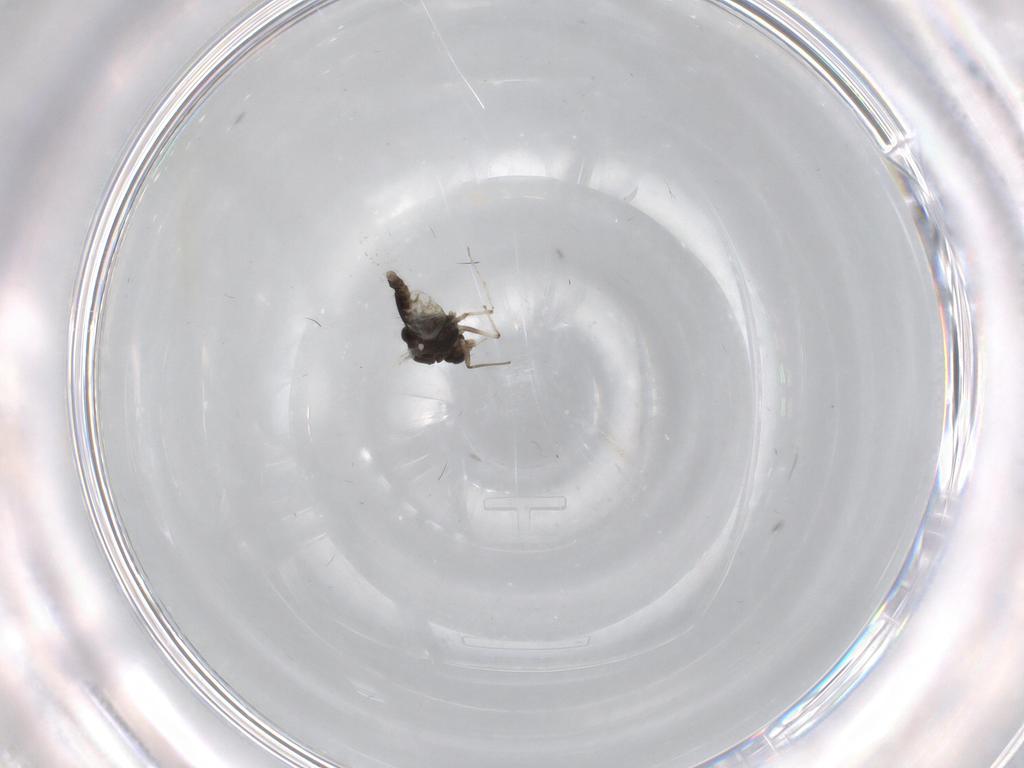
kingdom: Animalia
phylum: Arthropoda
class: Insecta
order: Diptera
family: Chironomidae
